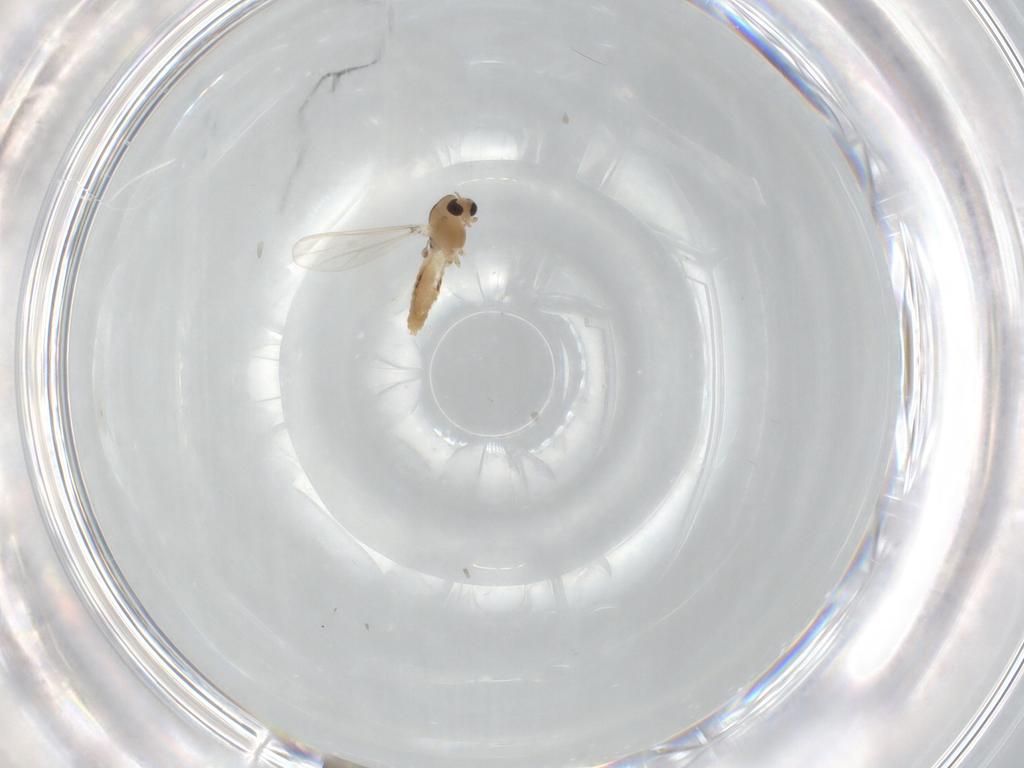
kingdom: Animalia
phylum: Arthropoda
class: Insecta
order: Diptera
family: Chironomidae
